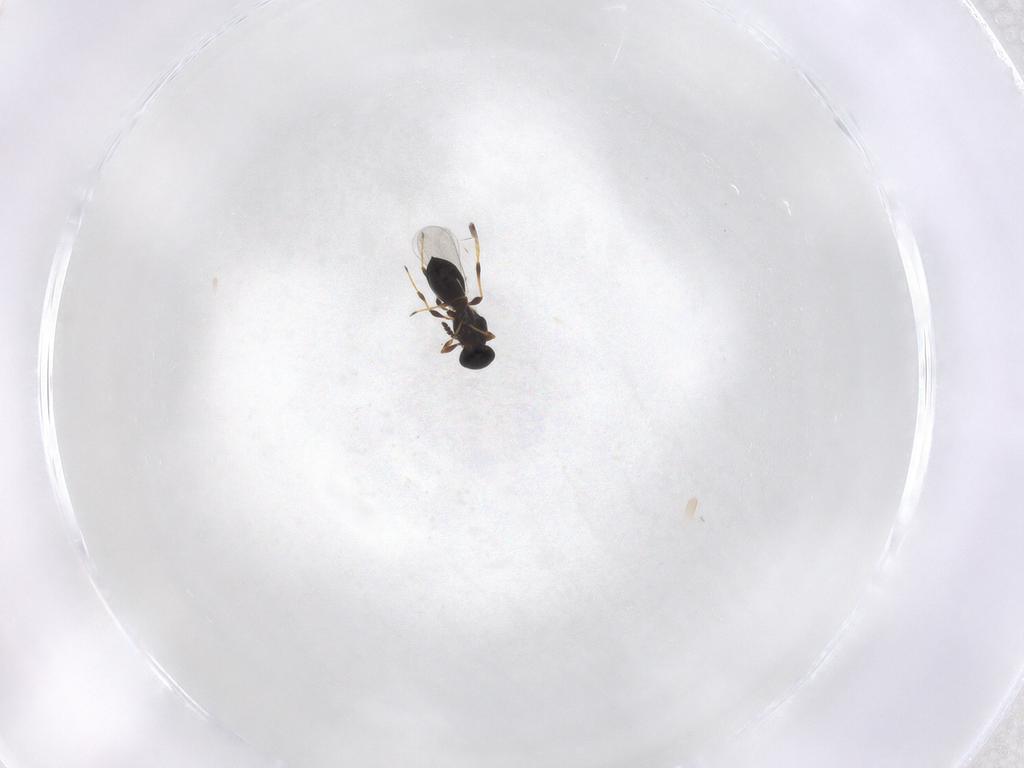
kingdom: Animalia
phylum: Arthropoda
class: Insecta
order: Hymenoptera
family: Platygastridae
